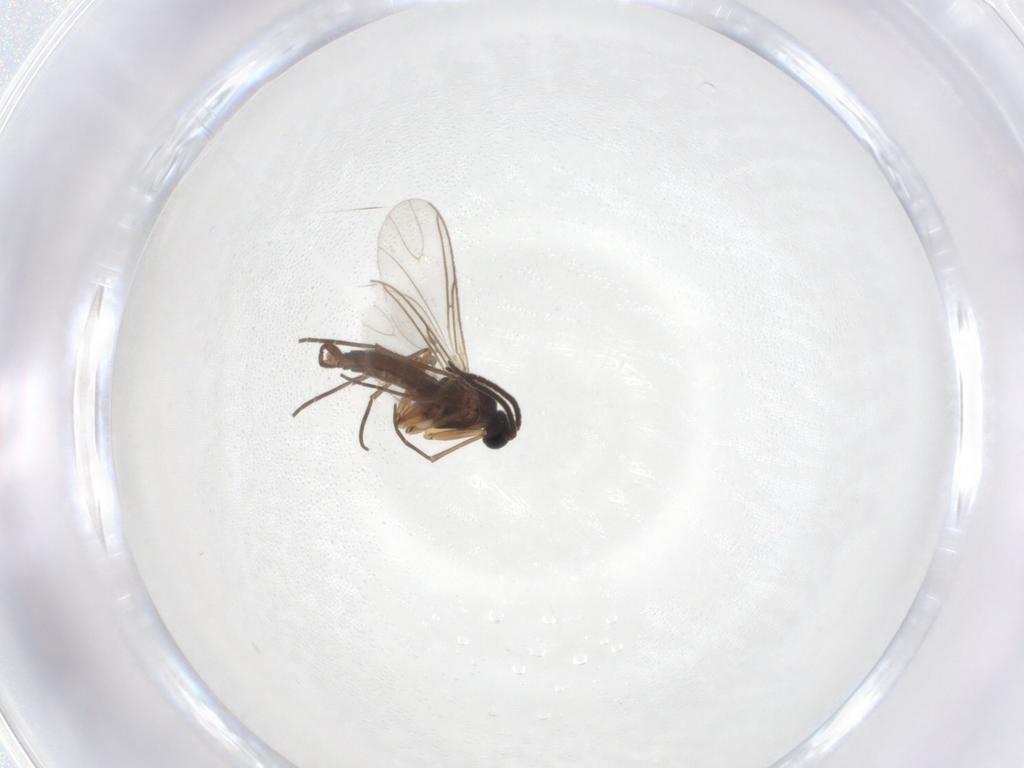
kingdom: Animalia
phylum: Arthropoda
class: Insecta
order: Diptera
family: Sciaridae
